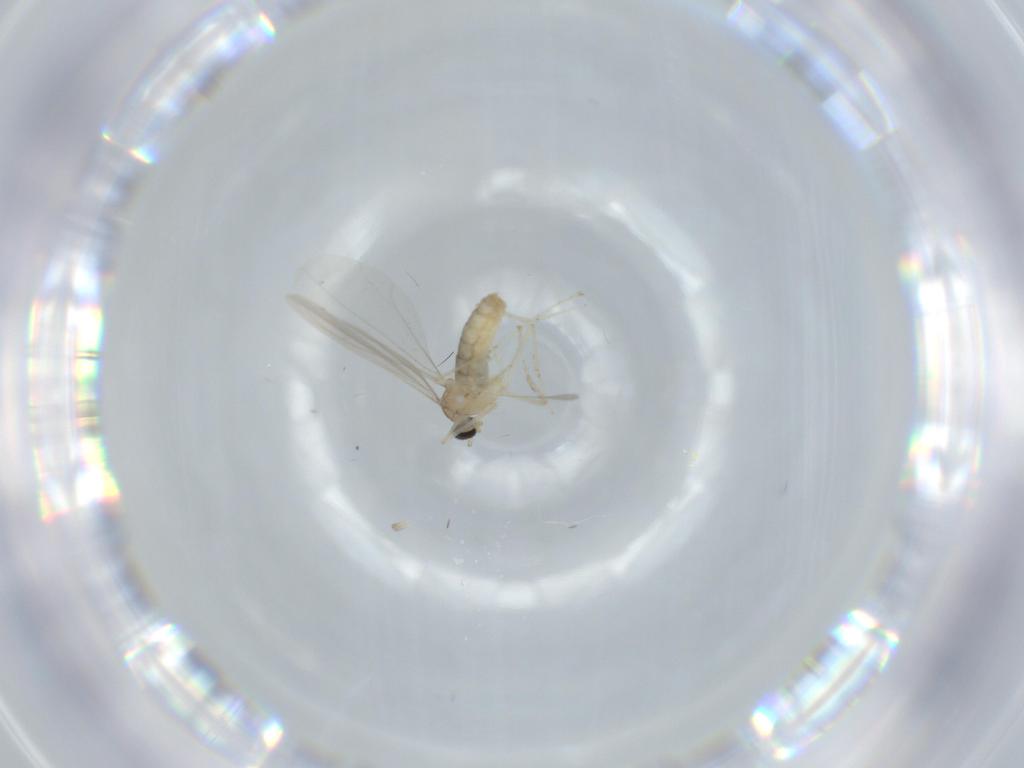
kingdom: Animalia
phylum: Arthropoda
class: Insecta
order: Diptera
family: Cecidomyiidae
